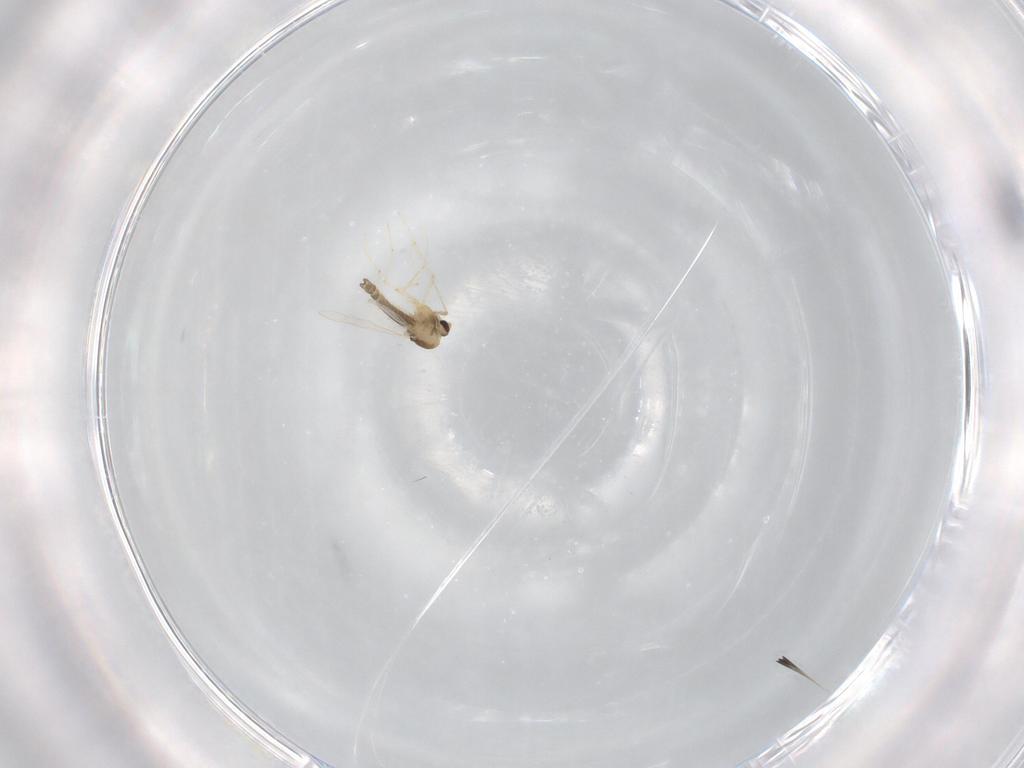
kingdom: Animalia
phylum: Arthropoda
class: Insecta
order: Diptera
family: Chironomidae
